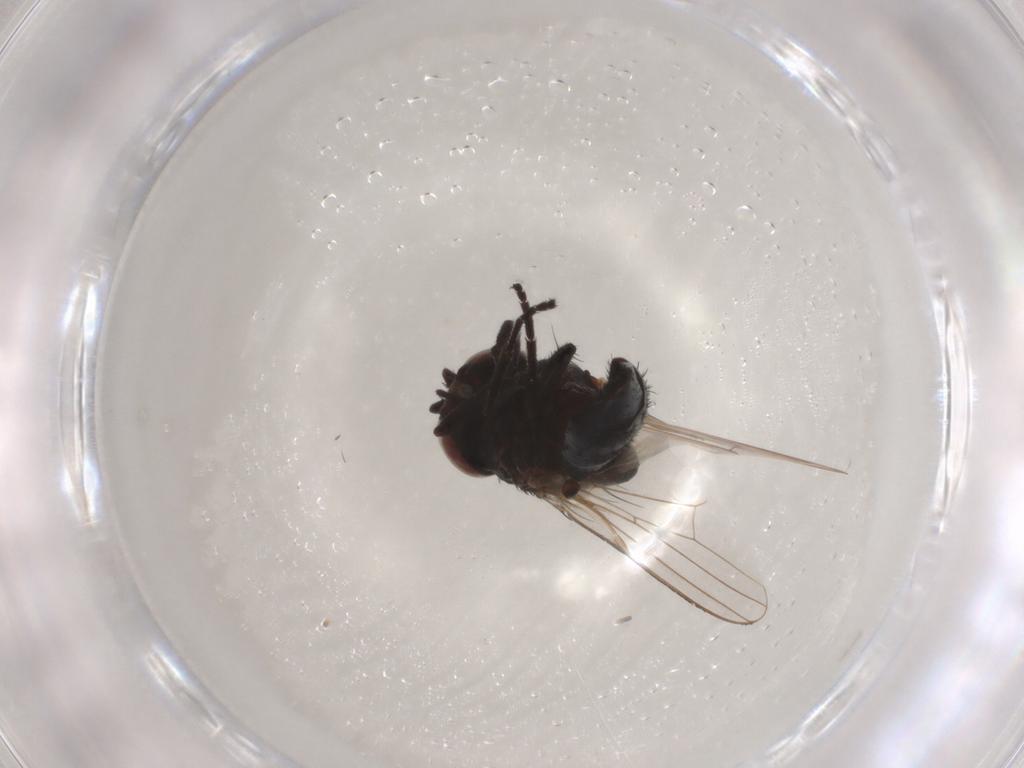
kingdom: Animalia
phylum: Arthropoda
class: Insecta
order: Diptera
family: Milichiidae
